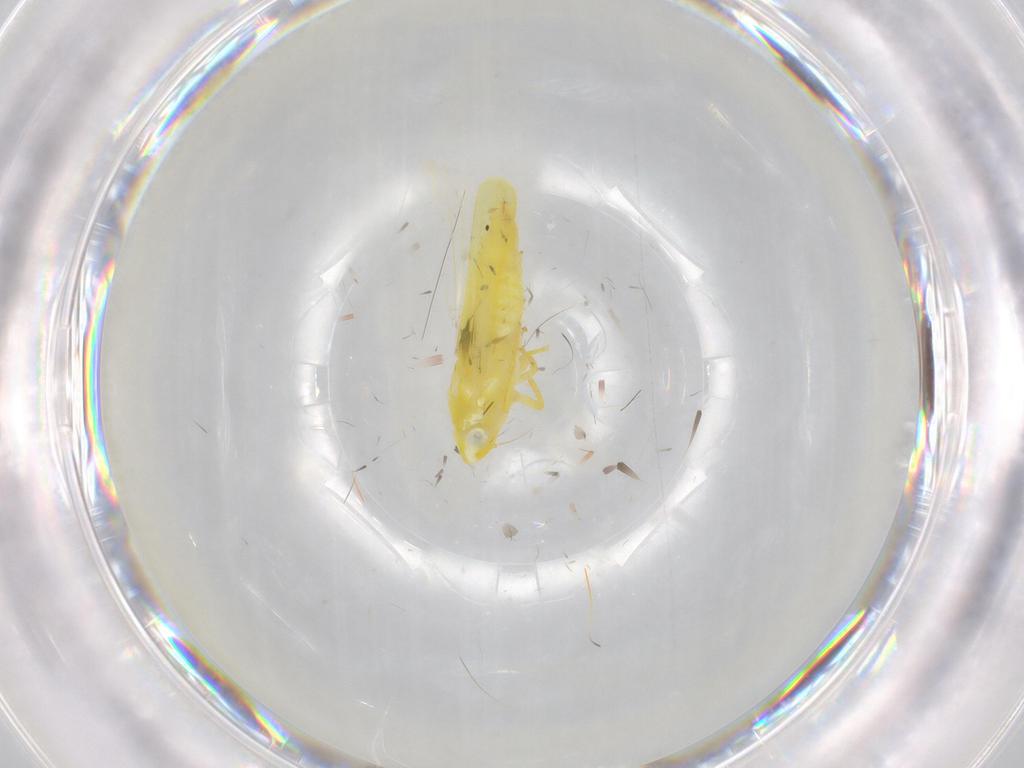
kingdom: Animalia
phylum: Arthropoda
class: Insecta
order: Hemiptera
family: Cicadellidae
